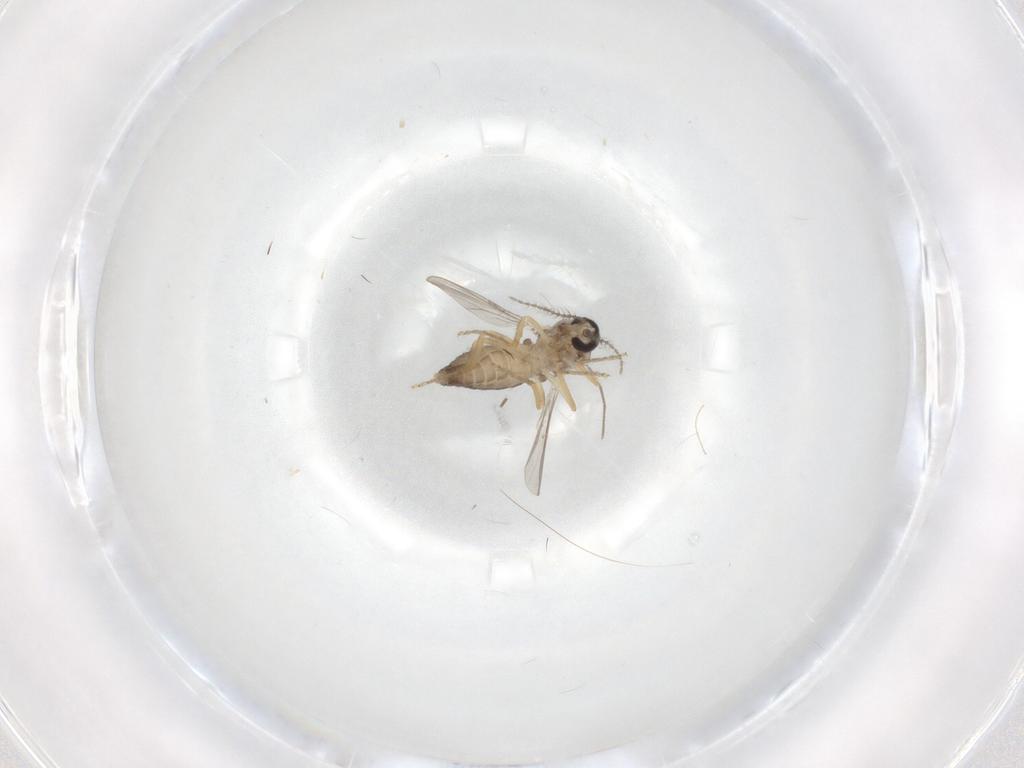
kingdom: Animalia
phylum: Arthropoda
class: Insecta
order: Diptera
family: Ceratopogonidae
